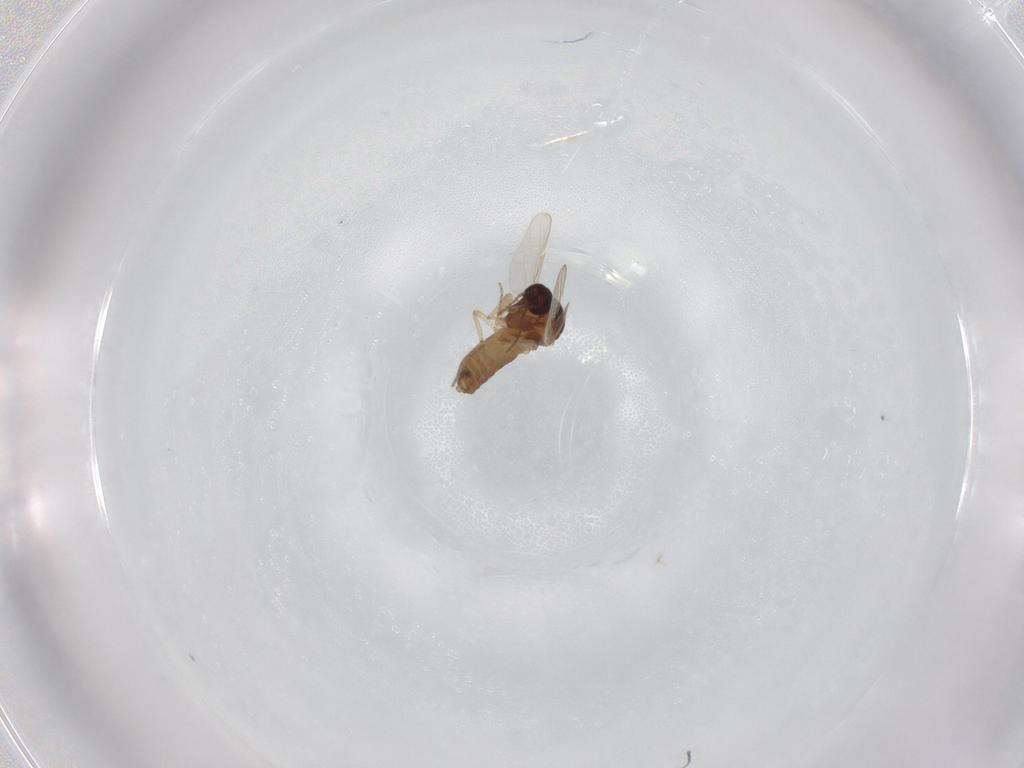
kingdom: Animalia
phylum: Arthropoda
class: Insecta
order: Diptera
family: Ceratopogonidae
